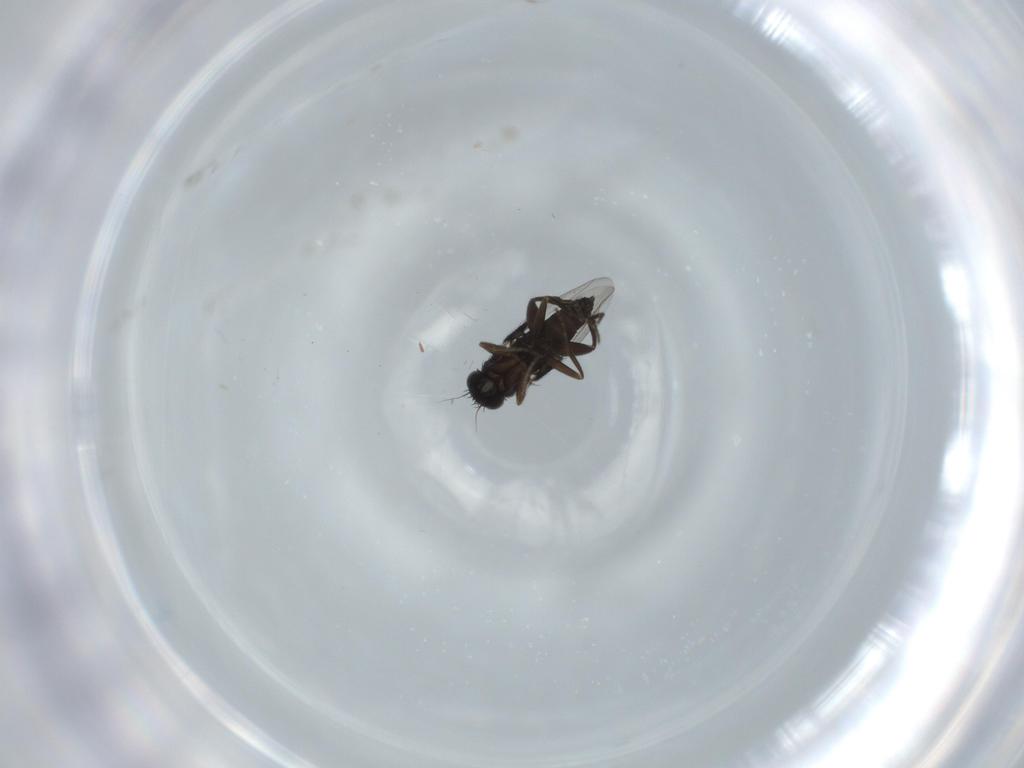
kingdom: Animalia
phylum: Arthropoda
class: Insecta
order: Diptera
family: Phoridae
